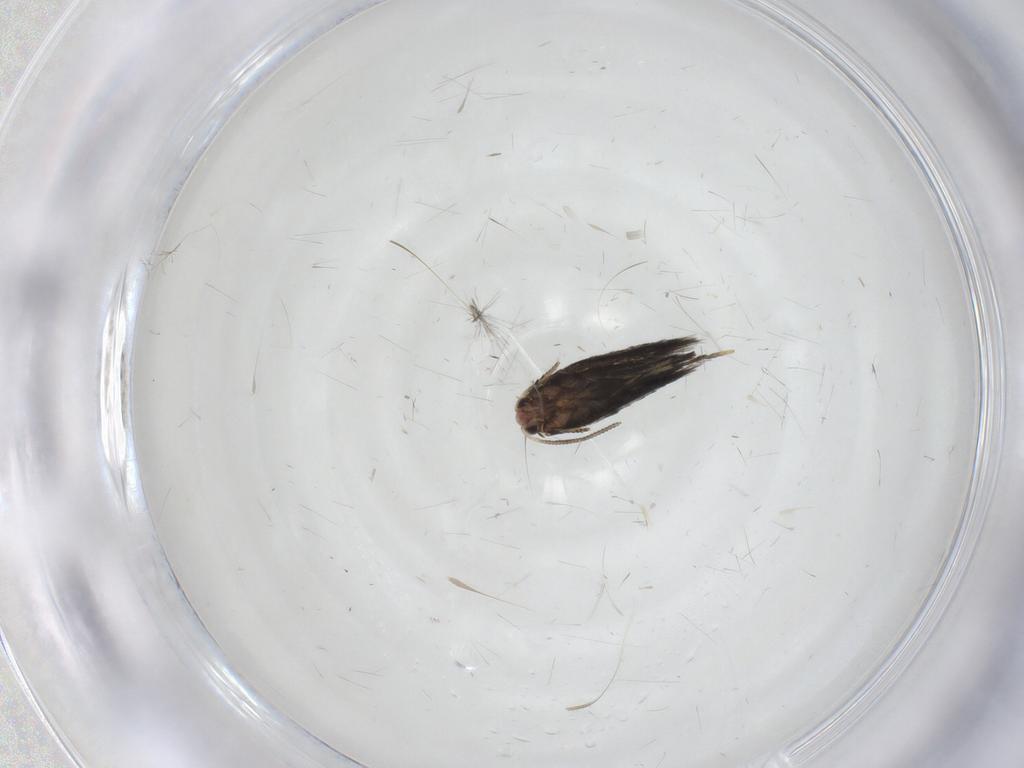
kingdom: Animalia
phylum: Arthropoda
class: Insecta
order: Lepidoptera
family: Nepticulidae
